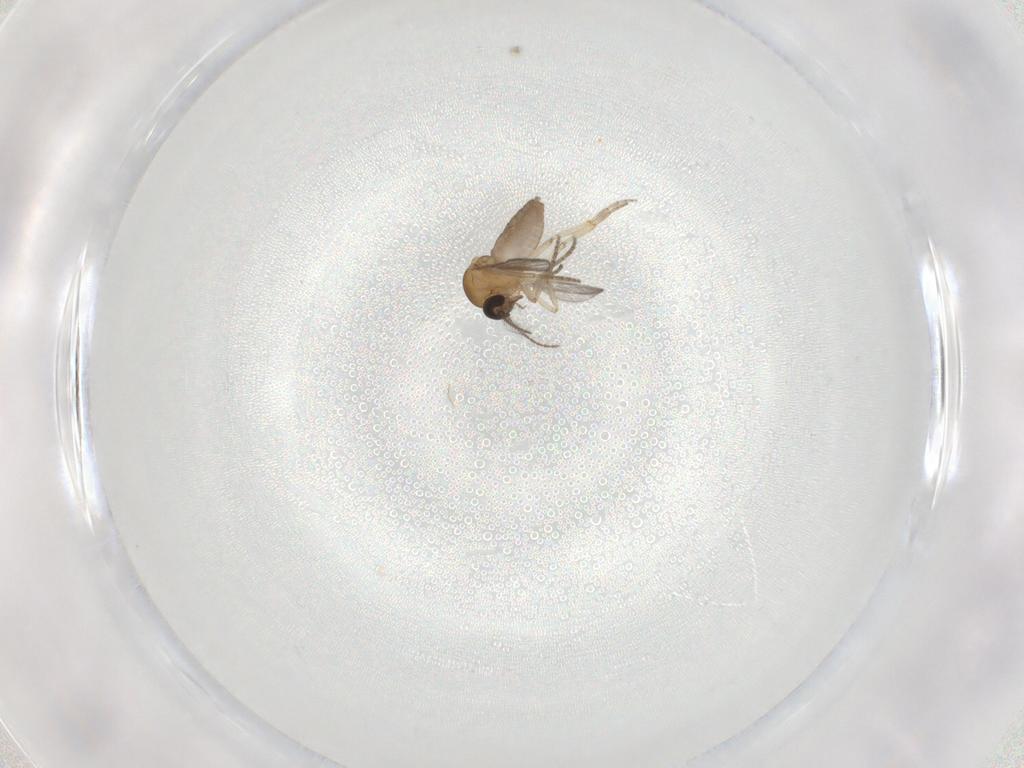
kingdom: Animalia
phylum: Arthropoda
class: Insecta
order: Diptera
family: Ceratopogonidae
